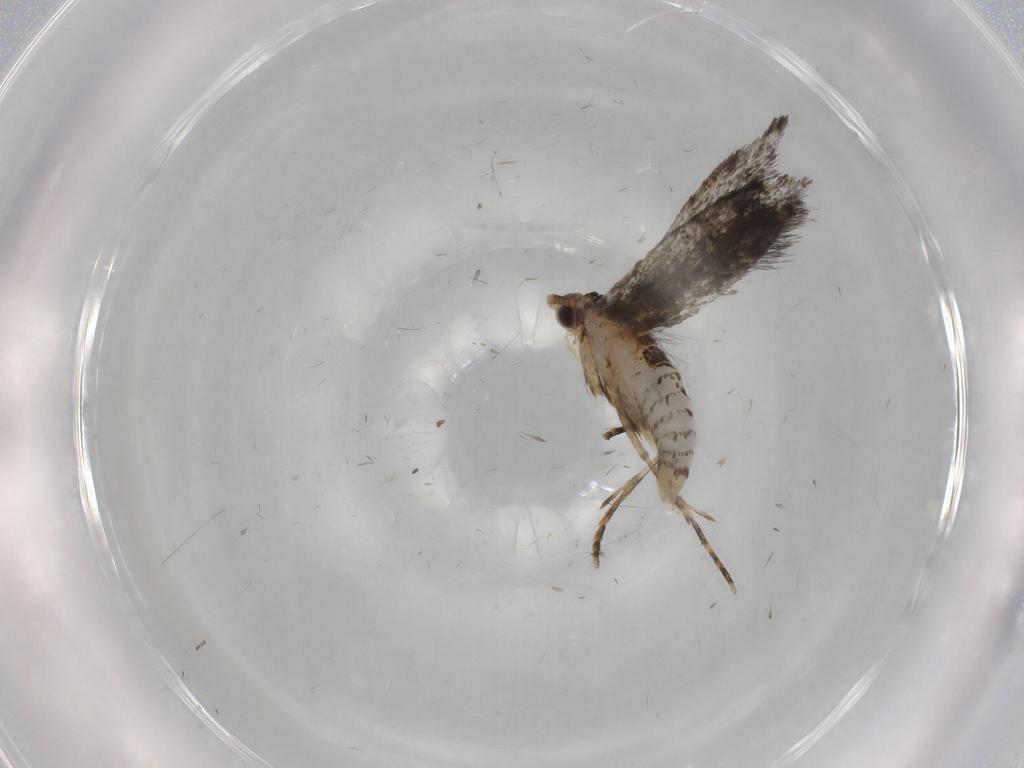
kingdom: Animalia
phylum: Arthropoda
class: Insecta
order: Lepidoptera
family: Tineidae
